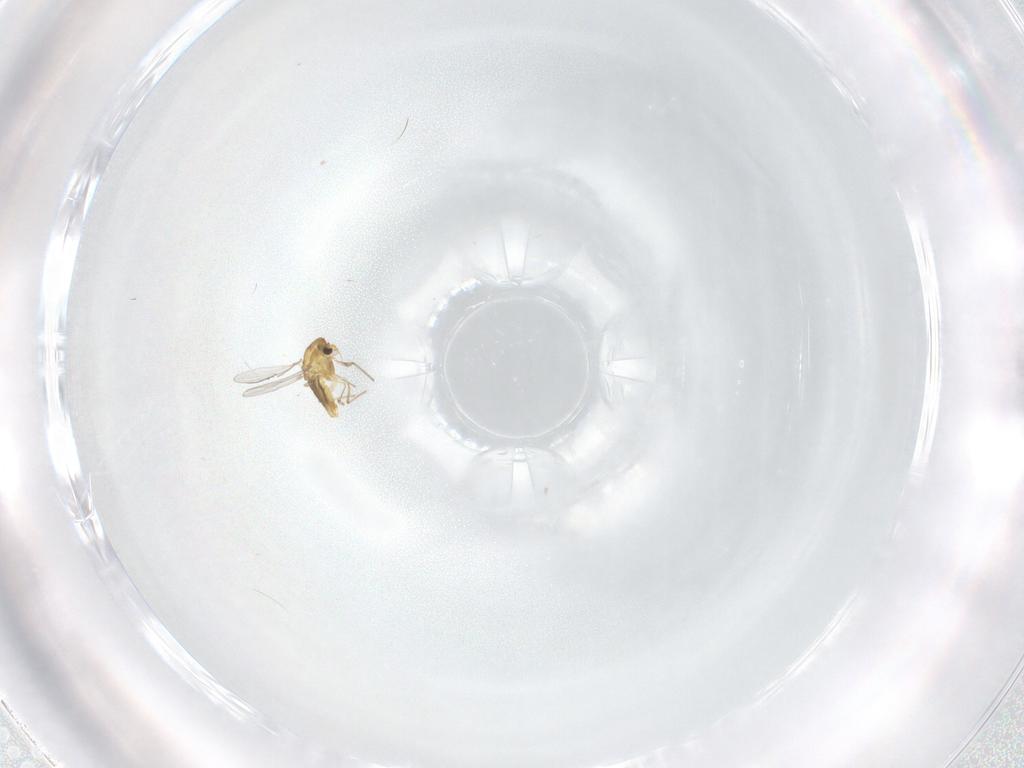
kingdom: Animalia
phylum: Arthropoda
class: Insecta
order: Diptera
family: Chironomidae
